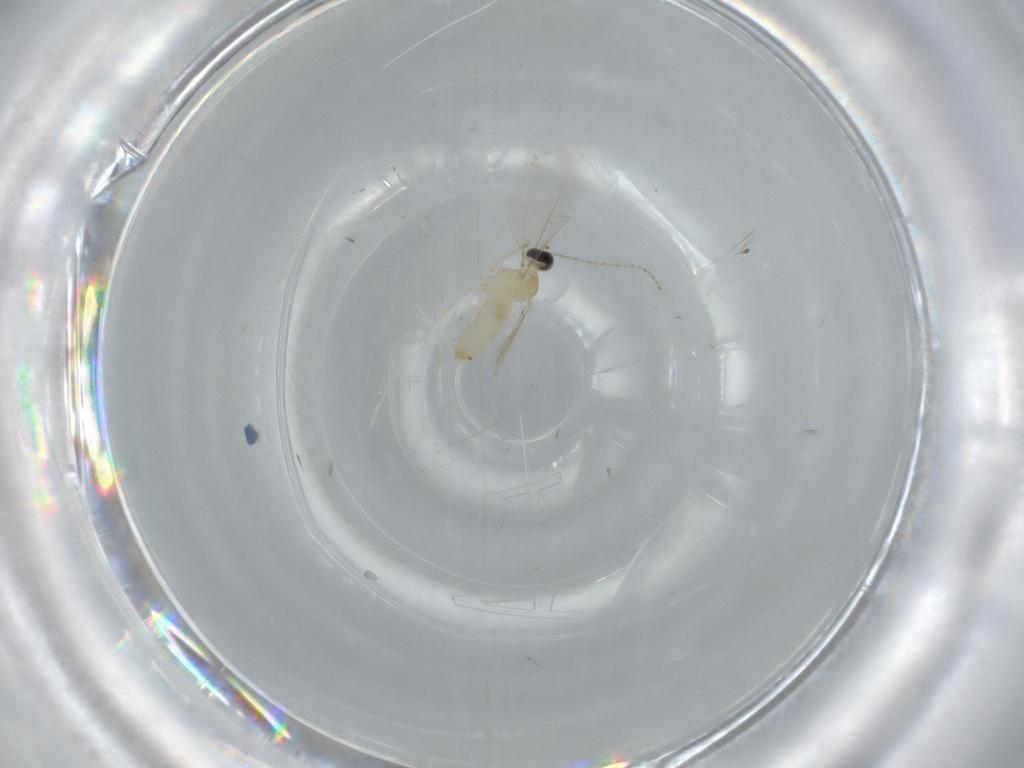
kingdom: Animalia
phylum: Arthropoda
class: Insecta
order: Diptera
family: Cecidomyiidae
